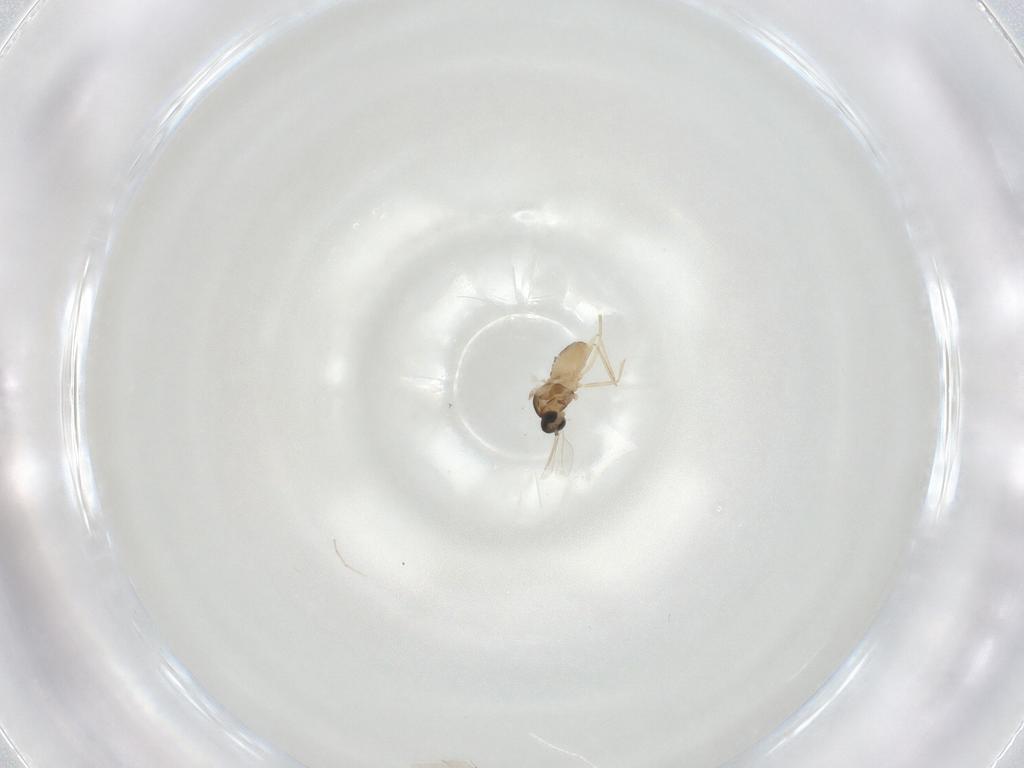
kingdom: Animalia
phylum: Arthropoda
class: Insecta
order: Diptera
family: Cecidomyiidae
